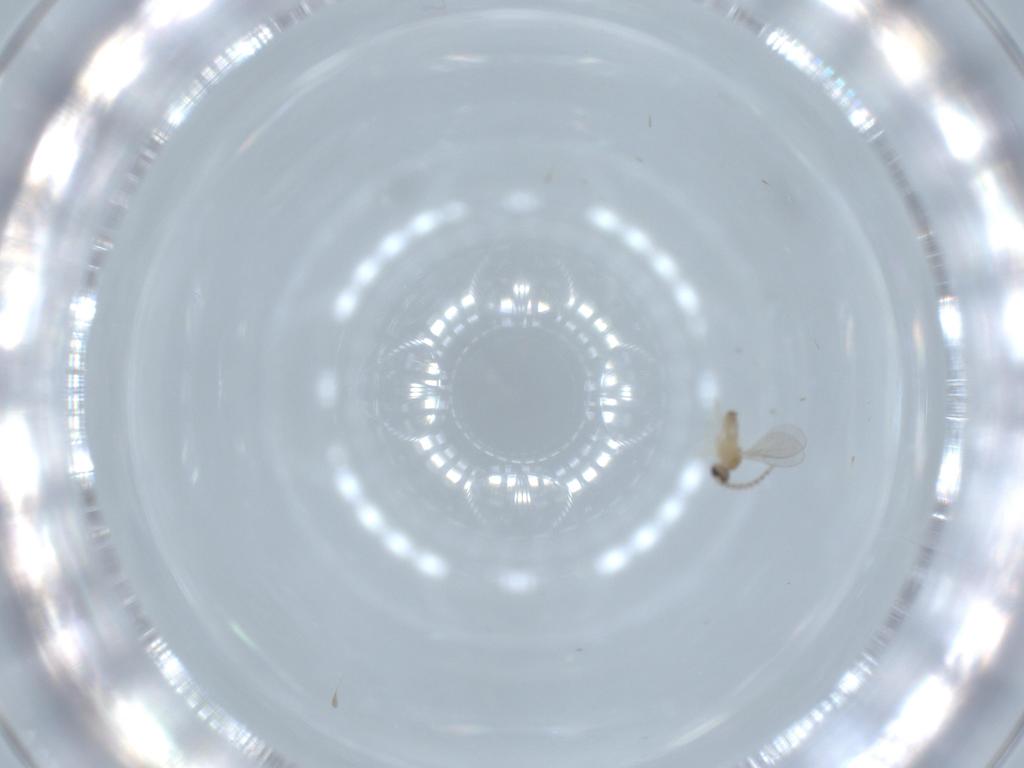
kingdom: Animalia
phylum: Arthropoda
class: Insecta
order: Diptera
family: Cecidomyiidae
